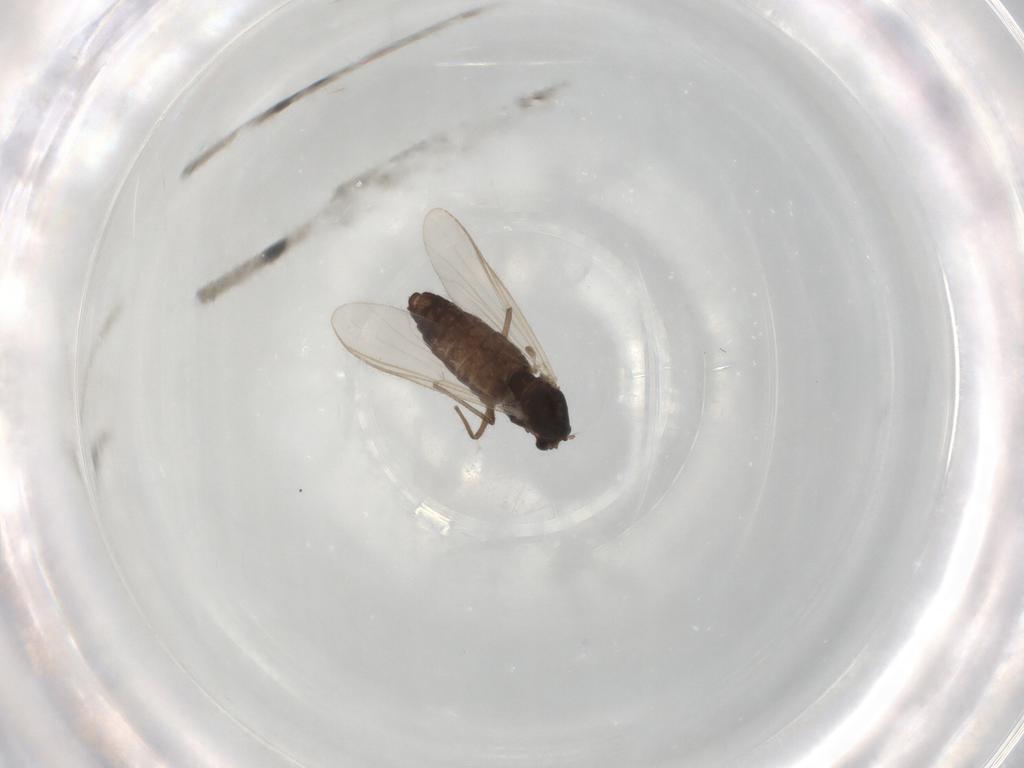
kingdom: Animalia
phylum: Arthropoda
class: Insecta
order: Diptera
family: Chironomidae
